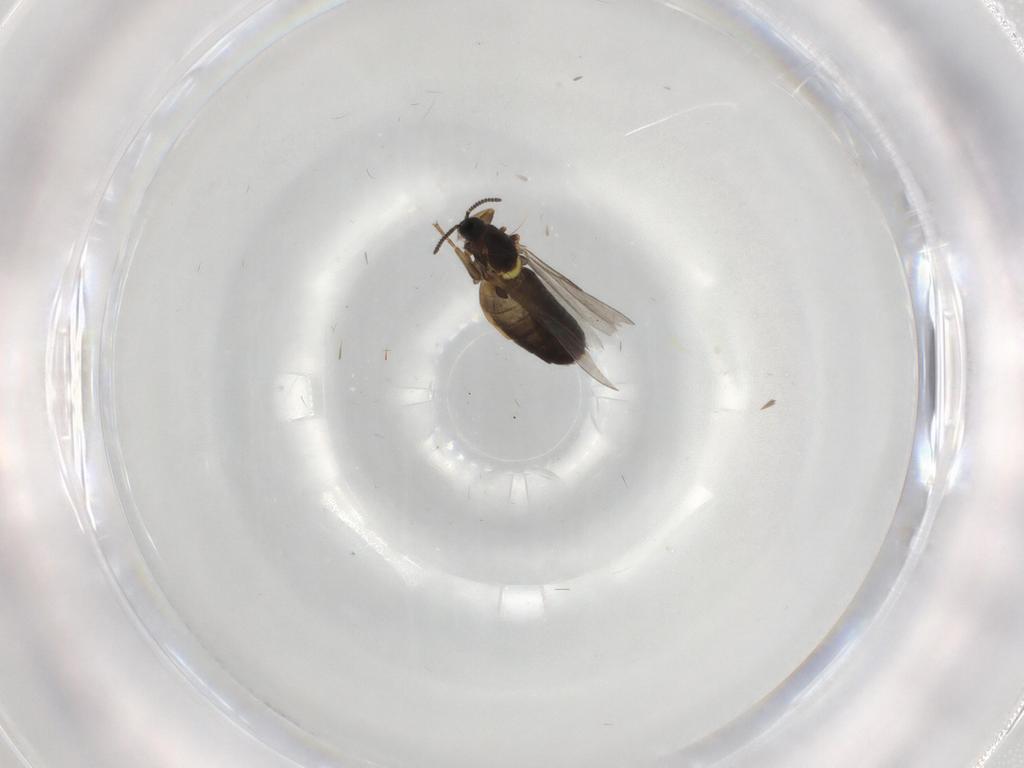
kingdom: Animalia
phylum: Arthropoda
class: Insecta
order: Diptera
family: Scatopsidae
